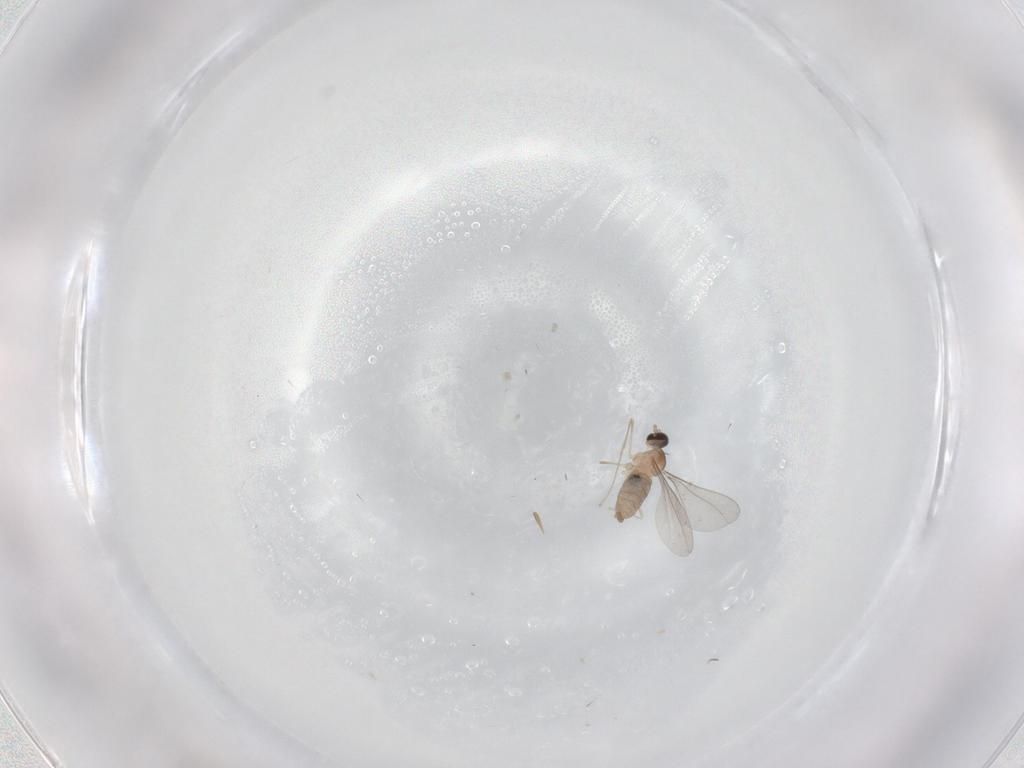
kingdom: Animalia
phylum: Arthropoda
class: Insecta
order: Diptera
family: Cecidomyiidae
